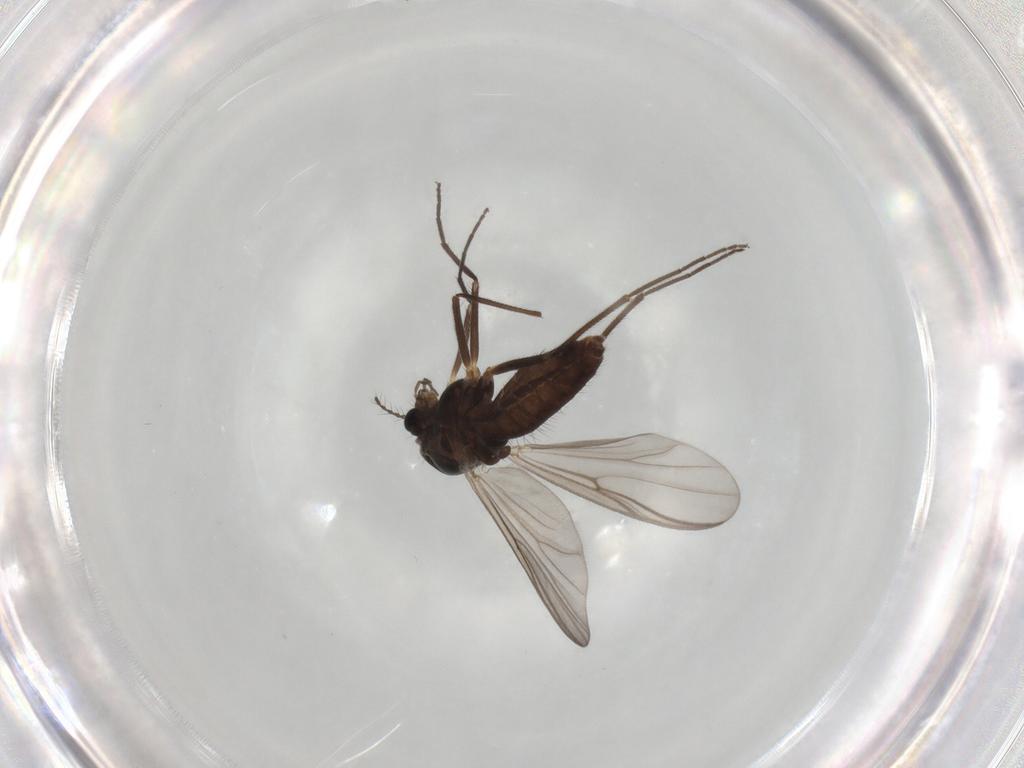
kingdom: Animalia
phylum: Arthropoda
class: Insecta
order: Diptera
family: Chironomidae
